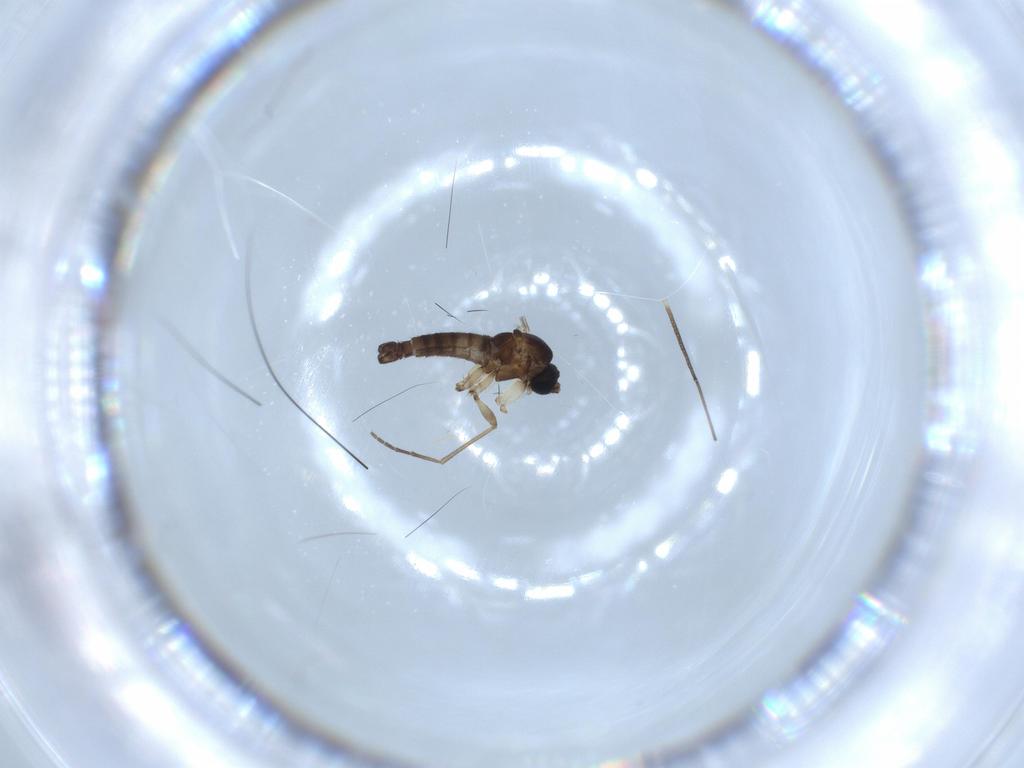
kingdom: Animalia
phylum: Arthropoda
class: Insecta
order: Diptera
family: Sciaridae
